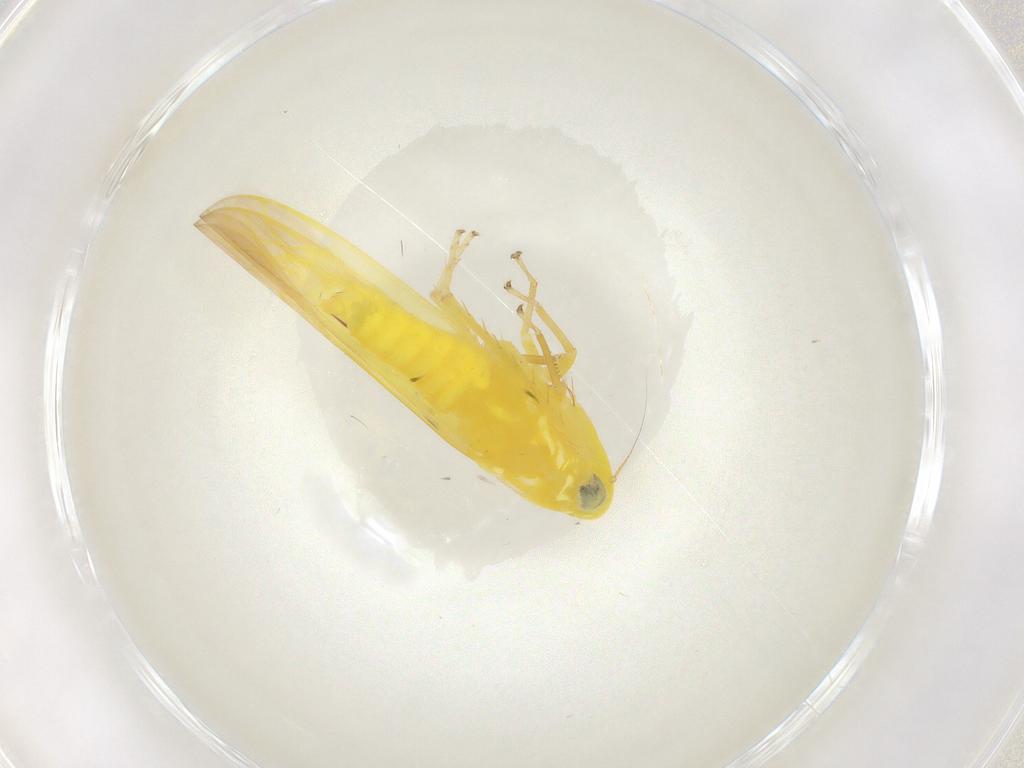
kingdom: Animalia
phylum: Arthropoda
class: Insecta
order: Hemiptera
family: Cicadellidae
